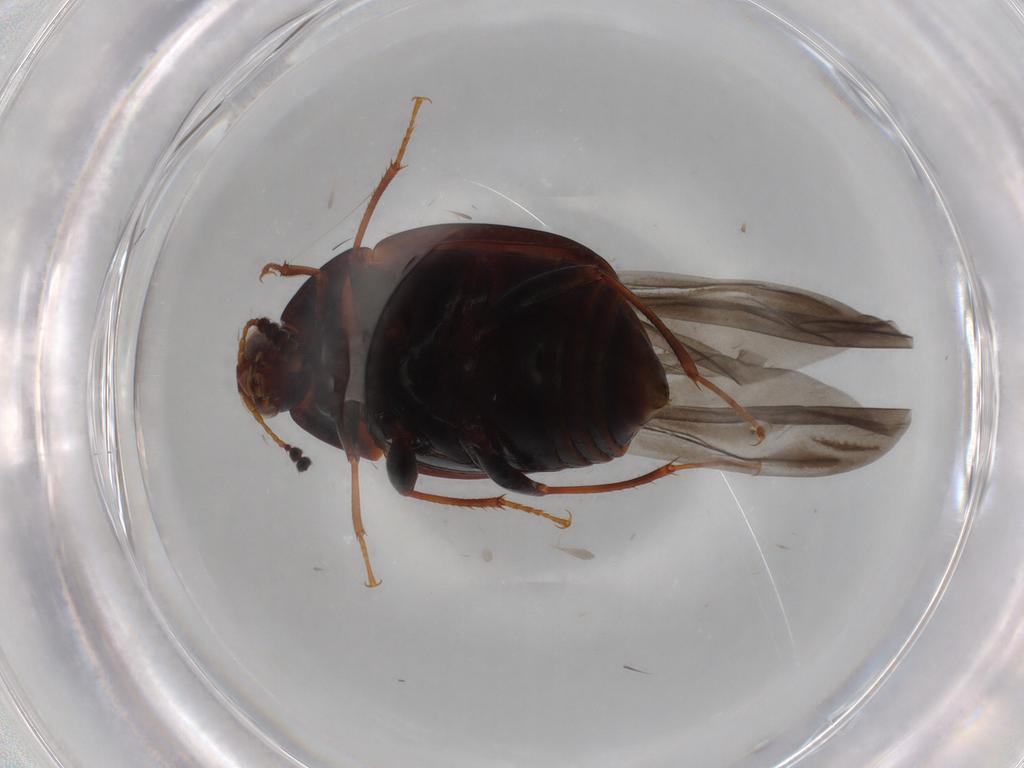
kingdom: Animalia
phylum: Arthropoda
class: Insecta
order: Coleoptera
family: Staphylinidae
